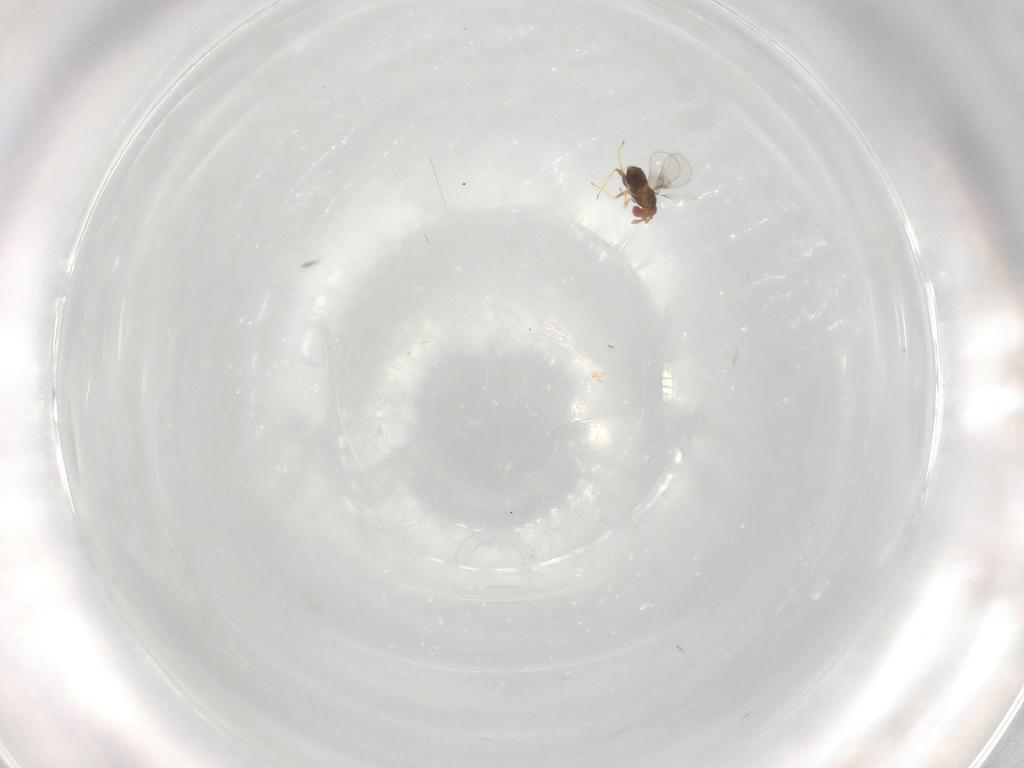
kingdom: Animalia
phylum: Arthropoda
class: Insecta
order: Hymenoptera
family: Trichogrammatidae
